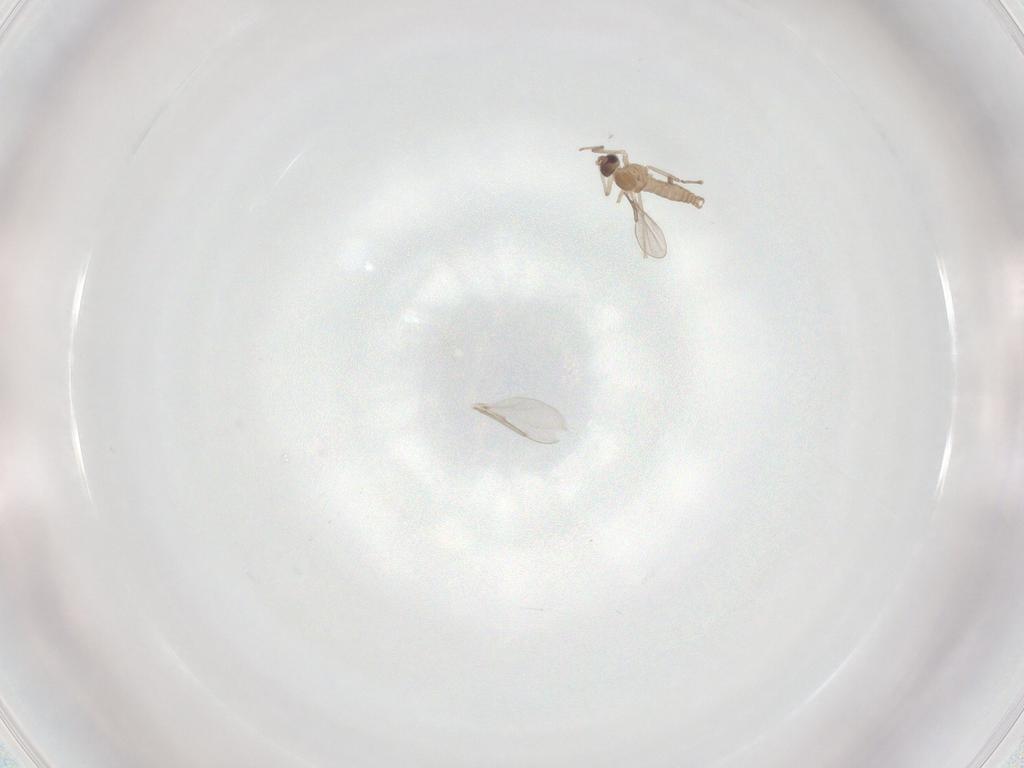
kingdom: Animalia
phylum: Arthropoda
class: Insecta
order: Diptera
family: Cecidomyiidae
